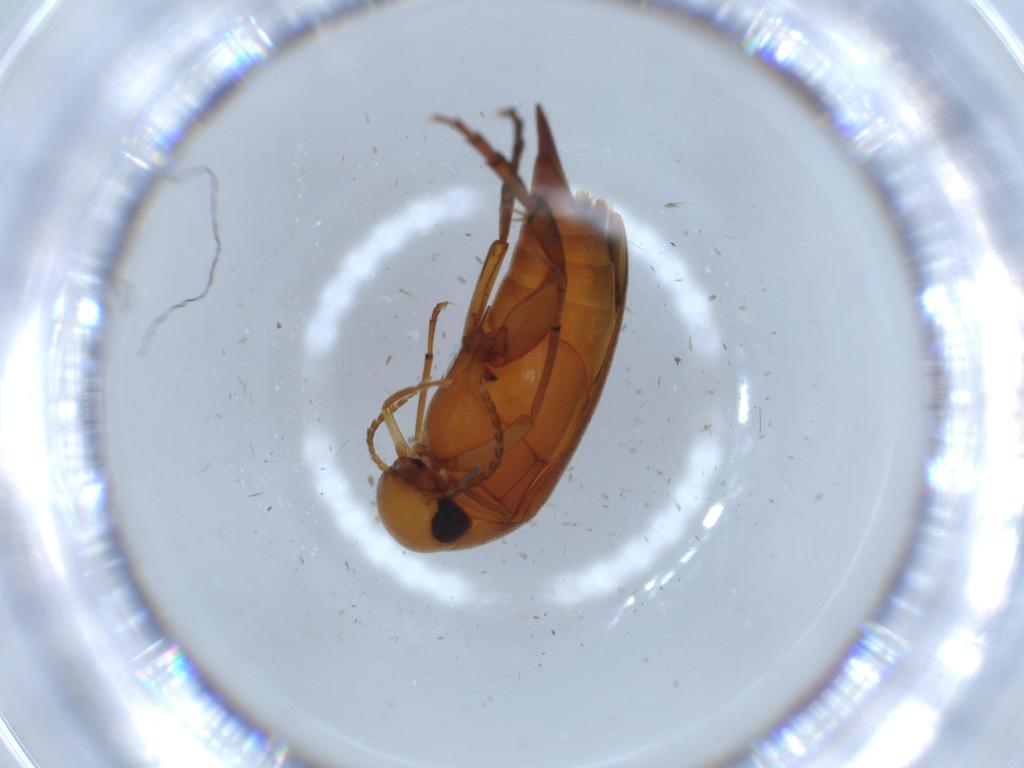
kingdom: Animalia
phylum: Arthropoda
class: Insecta
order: Coleoptera
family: Mordellidae
